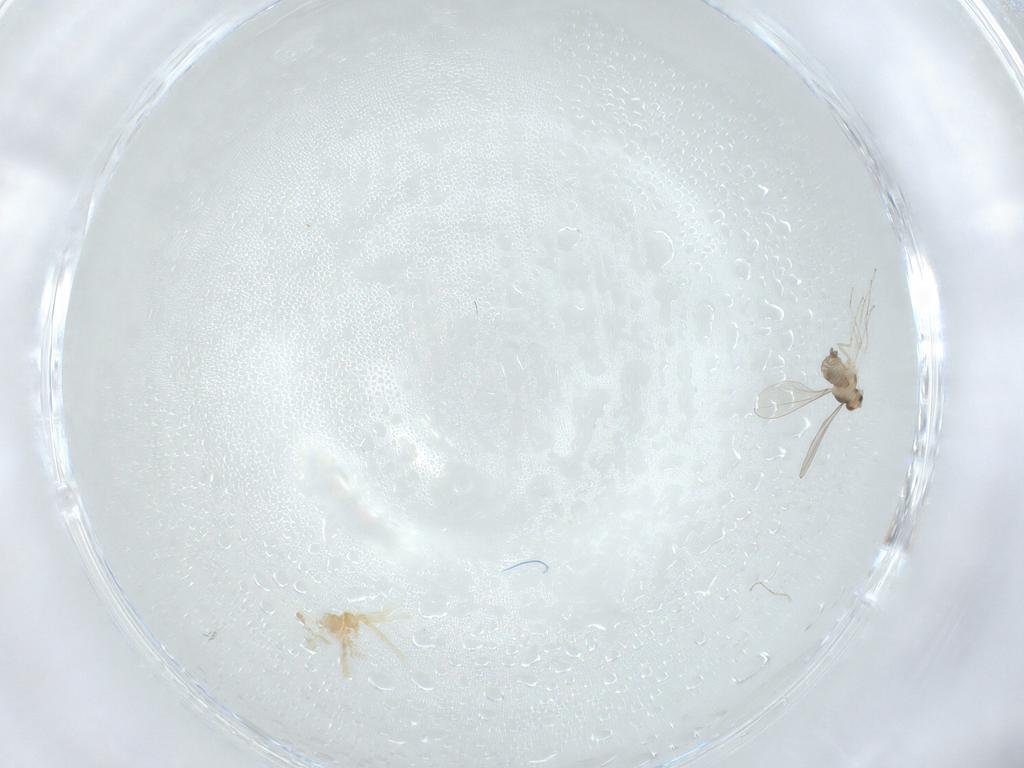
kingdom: Animalia
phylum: Arthropoda
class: Insecta
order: Diptera
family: Cecidomyiidae
